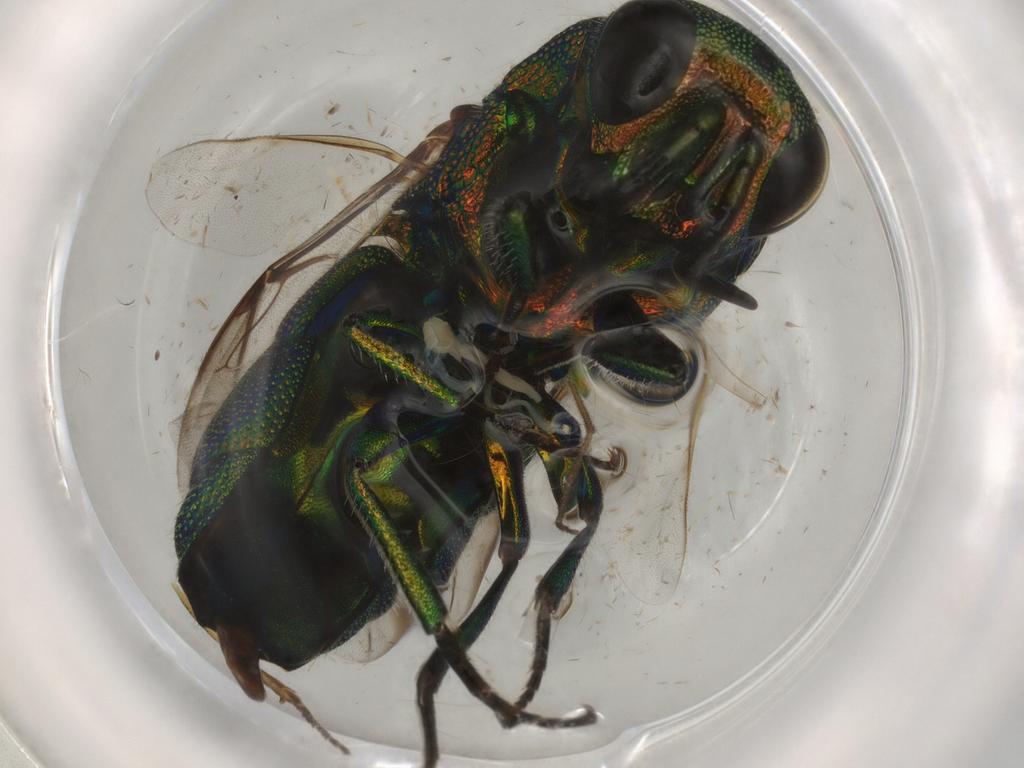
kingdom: Animalia
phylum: Arthropoda
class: Insecta
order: Hymenoptera
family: Chrysididae
